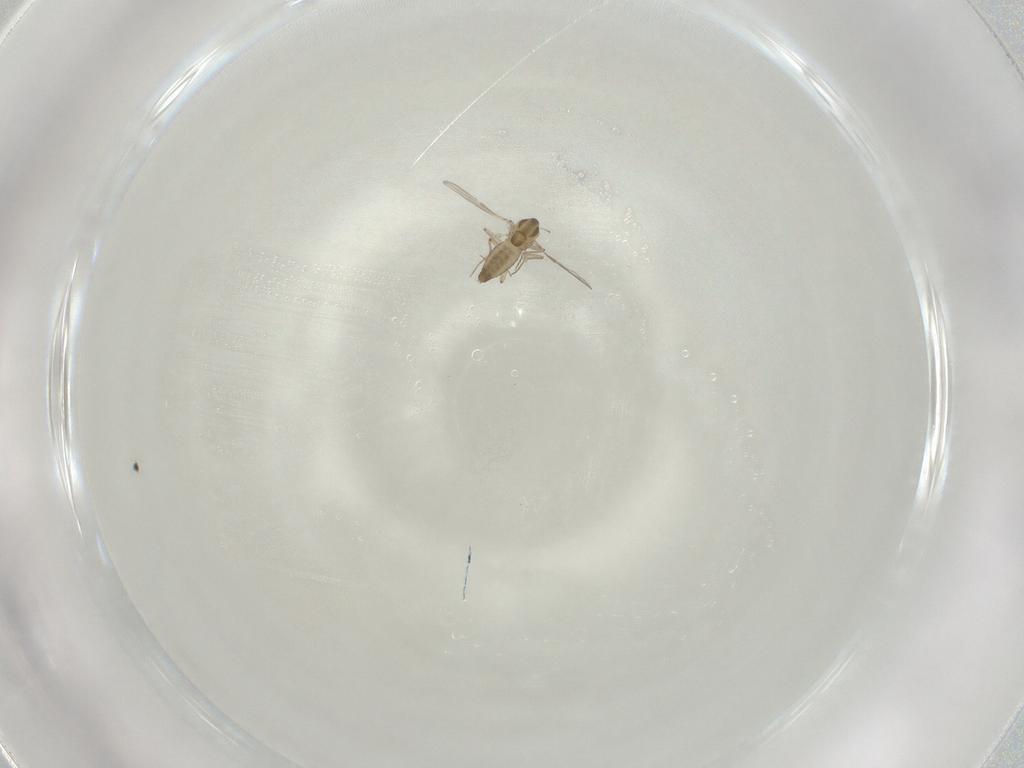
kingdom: Animalia
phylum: Arthropoda
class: Insecta
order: Diptera
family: Chironomidae
